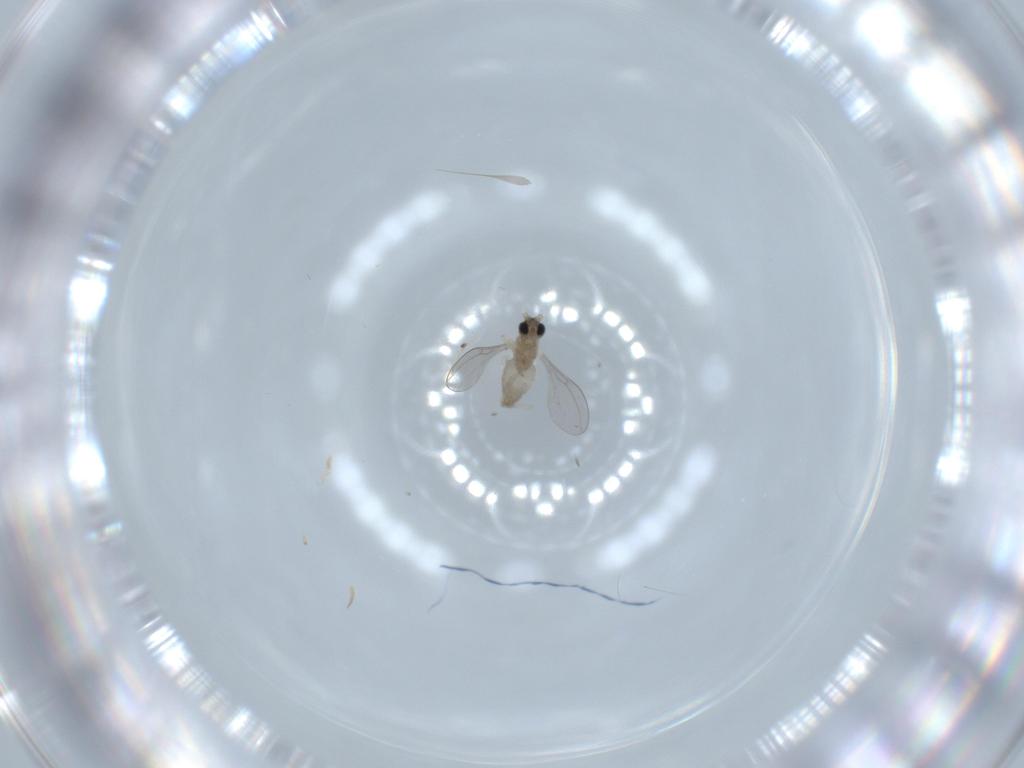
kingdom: Animalia
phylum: Arthropoda
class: Insecta
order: Diptera
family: Cecidomyiidae
